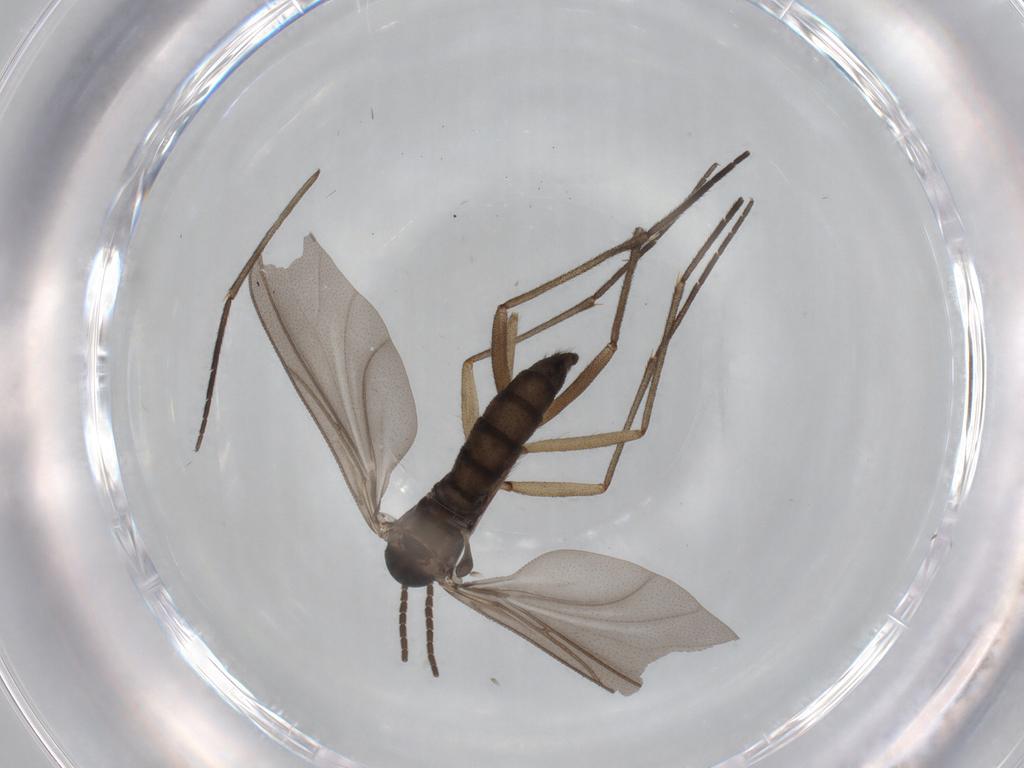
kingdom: Animalia
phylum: Arthropoda
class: Insecta
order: Diptera
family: Sciaridae
